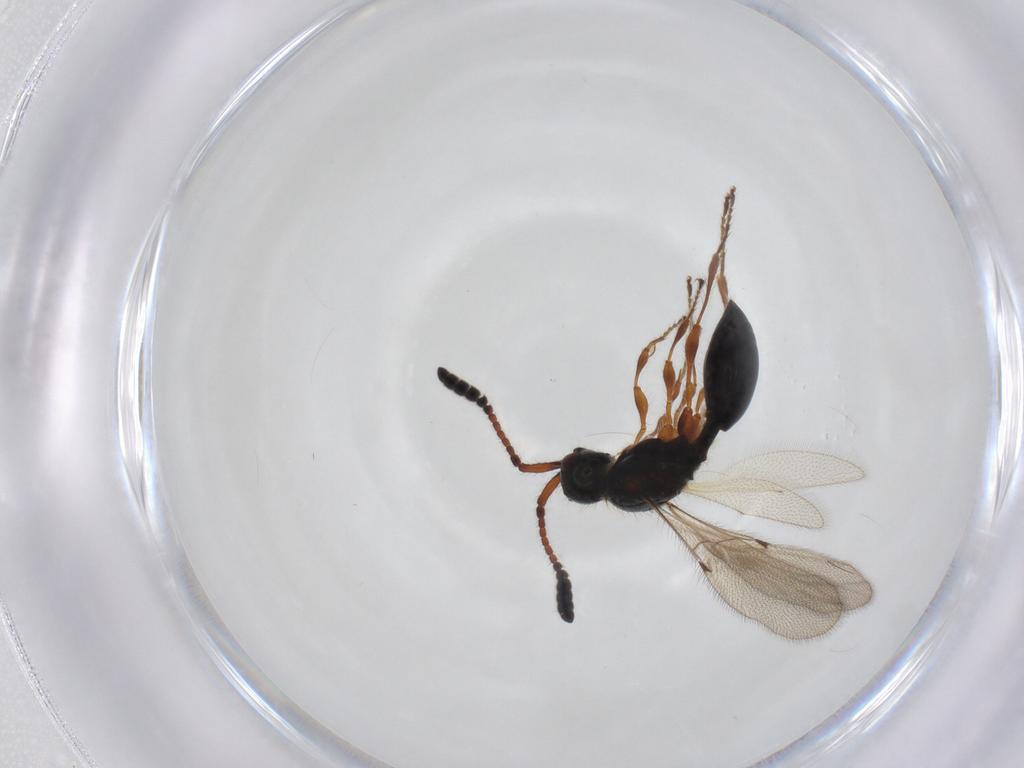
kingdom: Animalia
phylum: Arthropoda
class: Insecta
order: Hymenoptera
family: Diapriidae
